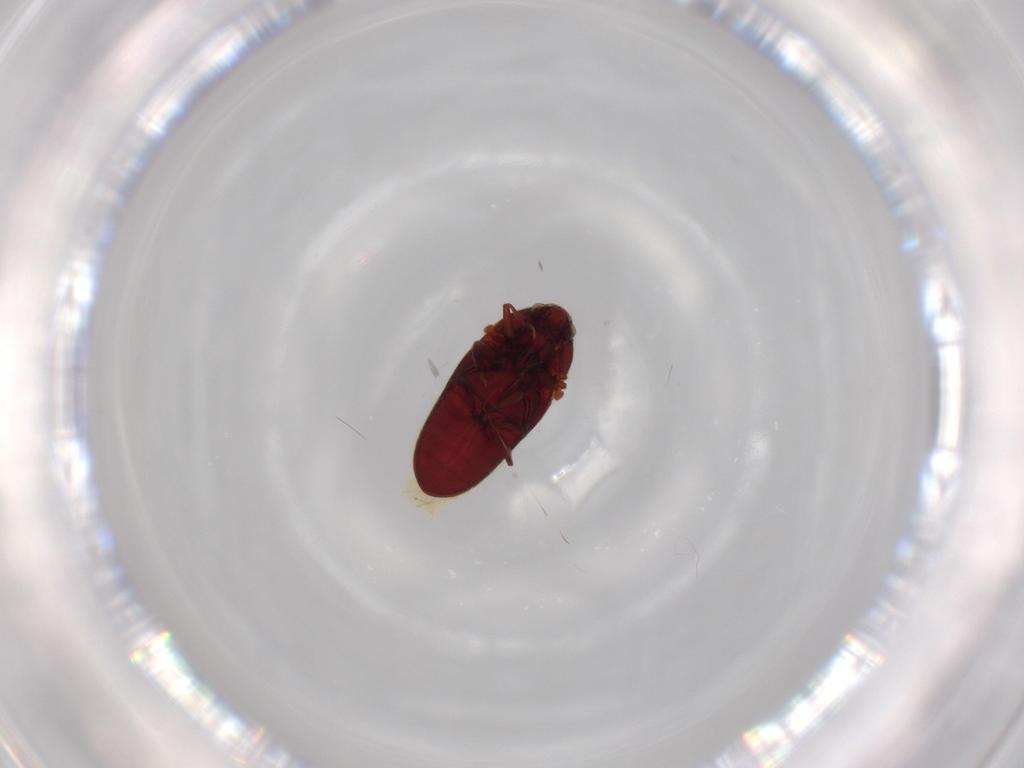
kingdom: Animalia
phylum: Arthropoda
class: Insecta
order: Coleoptera
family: Throscidae
